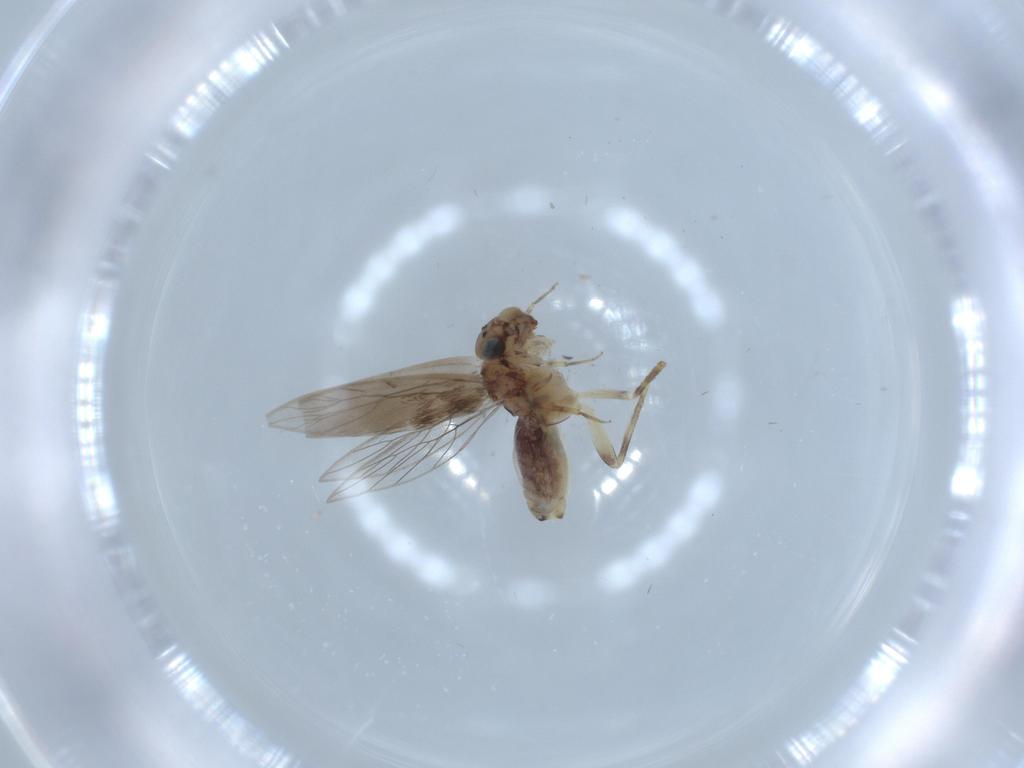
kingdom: Animalia
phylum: Arthropoda
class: Insecta
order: Psocodea
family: Lepidopsocidae
